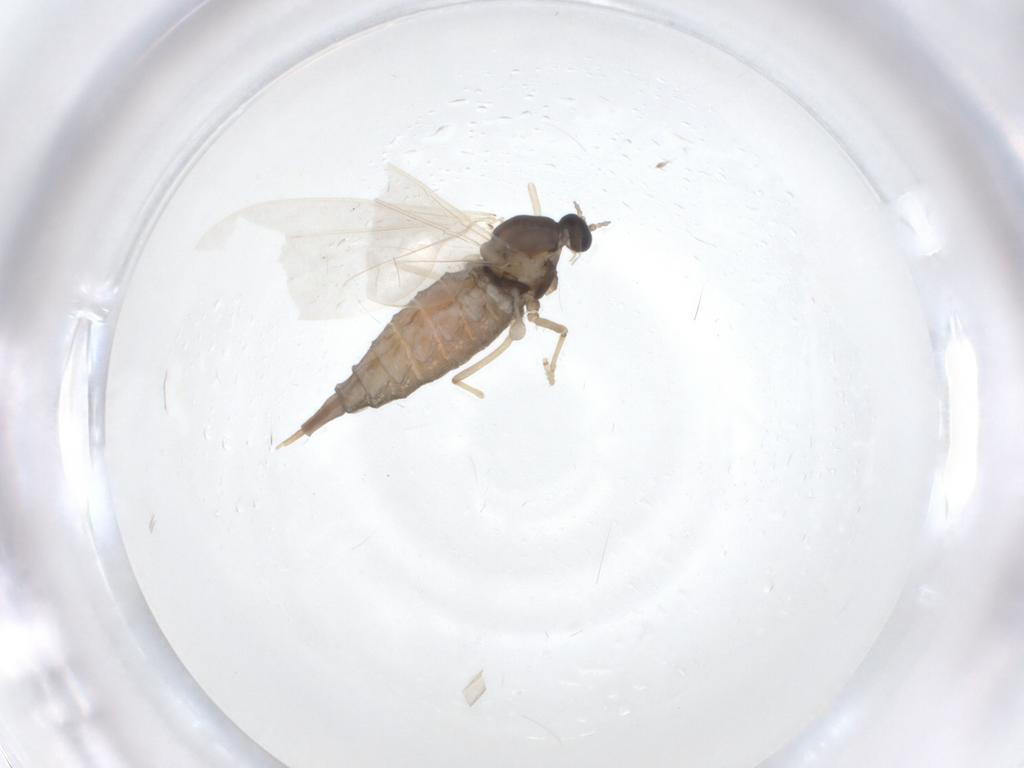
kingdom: Animalia
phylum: Arthropoda
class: Insecta
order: Diptera
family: Cecidomyiidae
